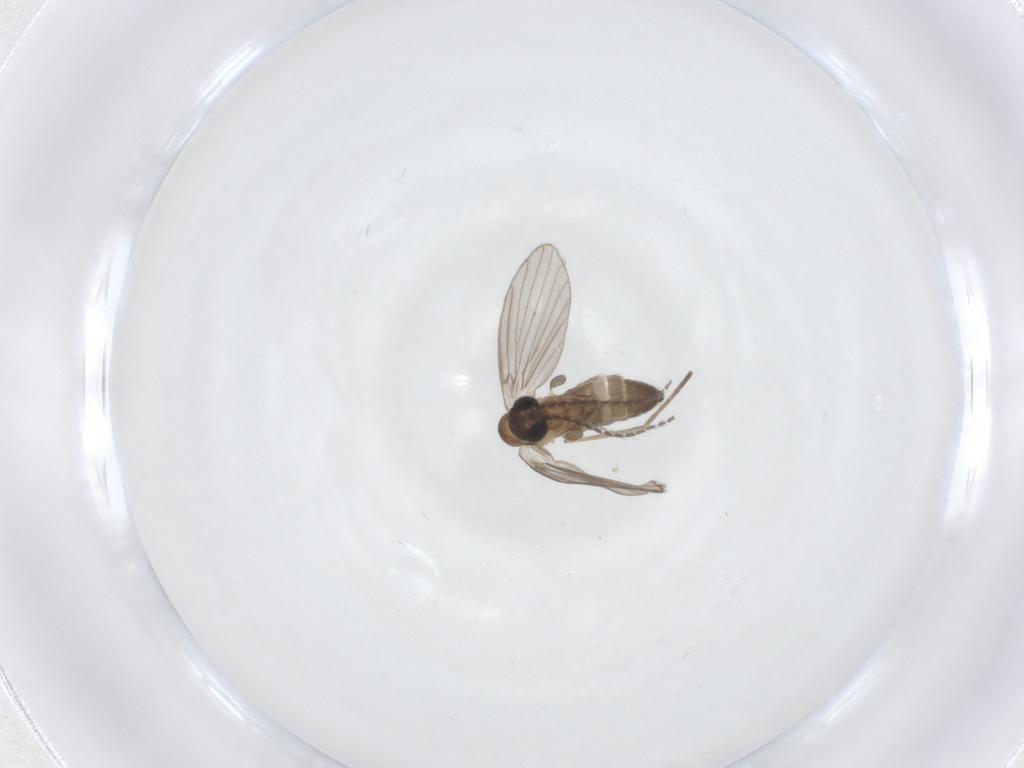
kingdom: Animalia
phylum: Arthropoda
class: Insecta
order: Diptera
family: Hybotidae
